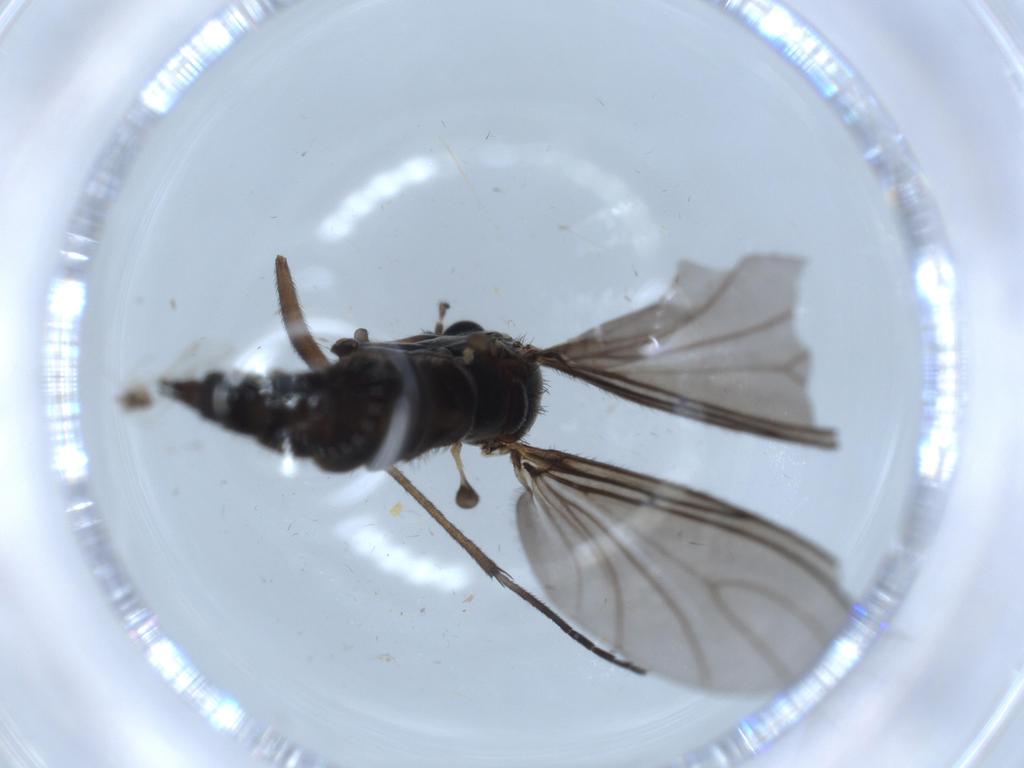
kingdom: Animalia
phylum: Arthropoda
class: Insecta
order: Diptera
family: Sciaridae
